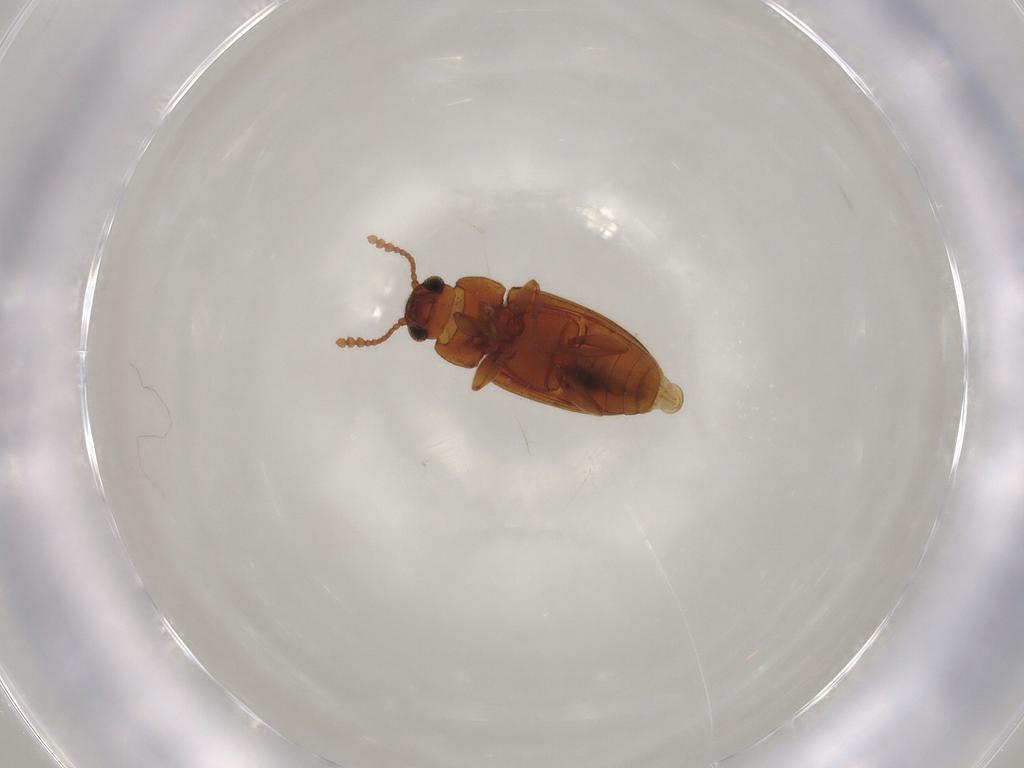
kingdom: Animalia
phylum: Arthropoda
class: Insecta
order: Coleoptera
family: Erotylidae
